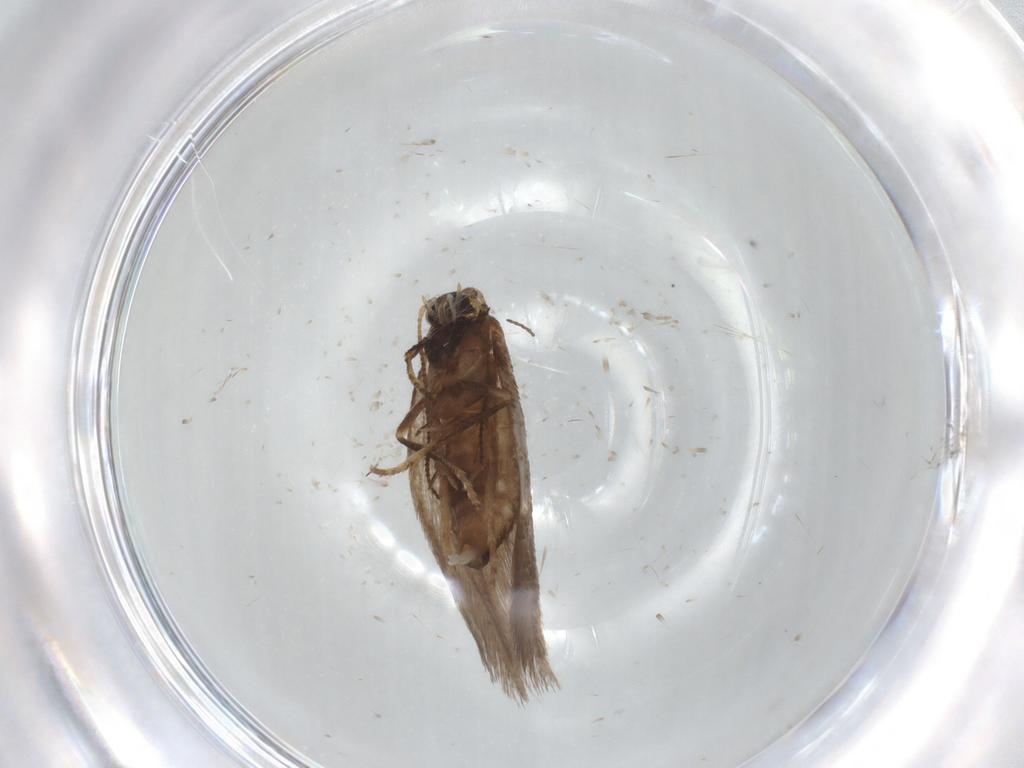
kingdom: Animalia
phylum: Arthropoda
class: Insecta
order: Lepidoptera
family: Nepticulidae
